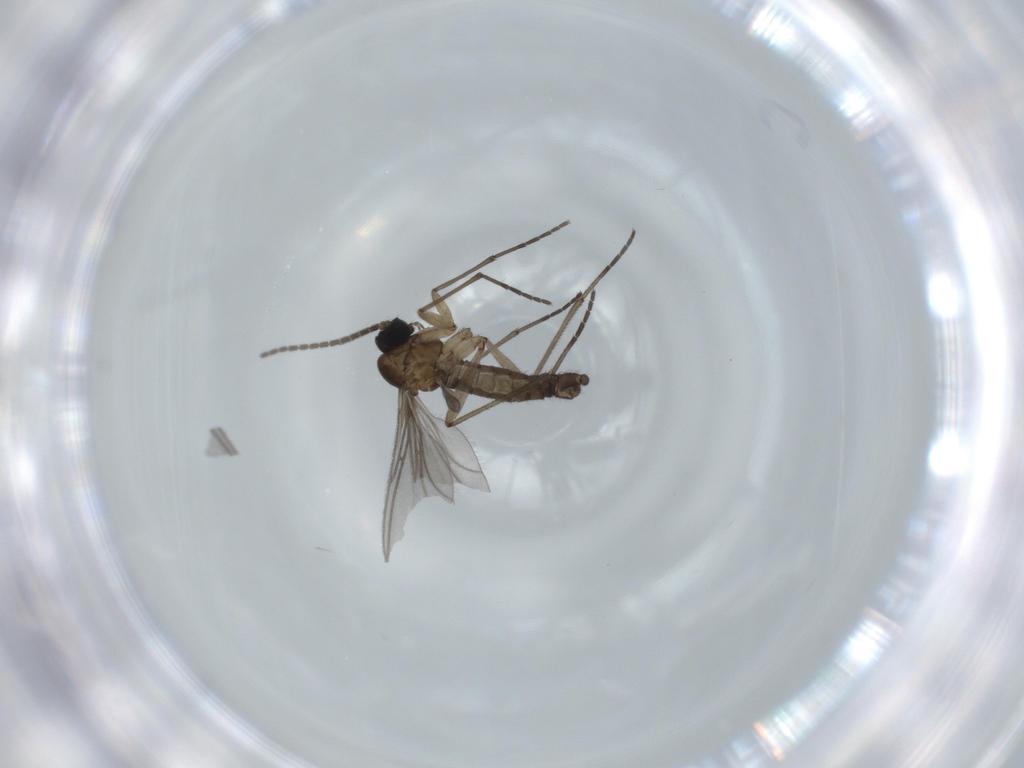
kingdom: Animalia
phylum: Arthropoda
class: Insecta
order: Diptera
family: Sciaridae
